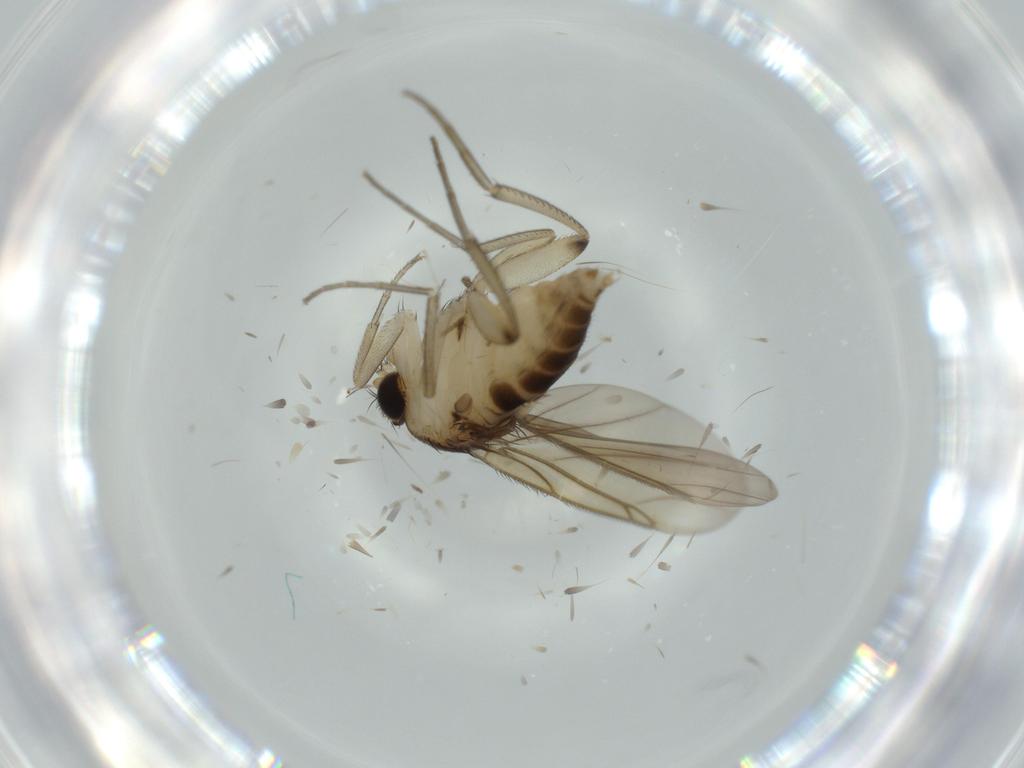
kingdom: Animalia
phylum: Arthropoda
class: Insecta
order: Diptera
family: Phoridae
